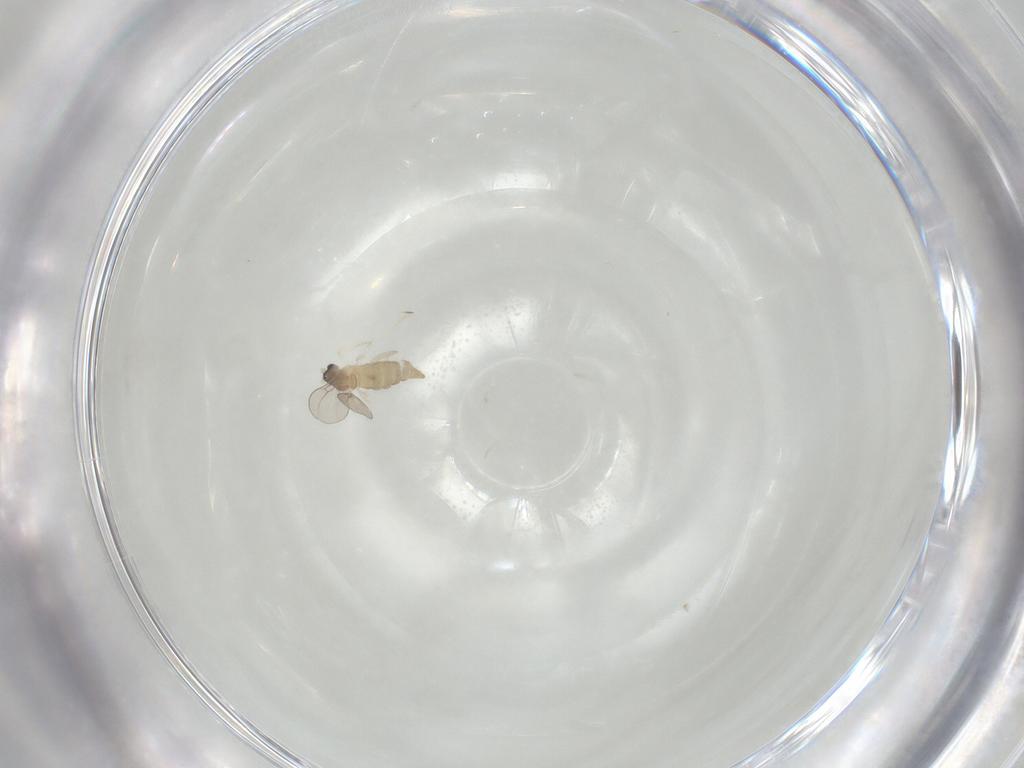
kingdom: Animalia
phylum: Arthropoda
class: Insecta
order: Diptera
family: Cecidomyiidae
